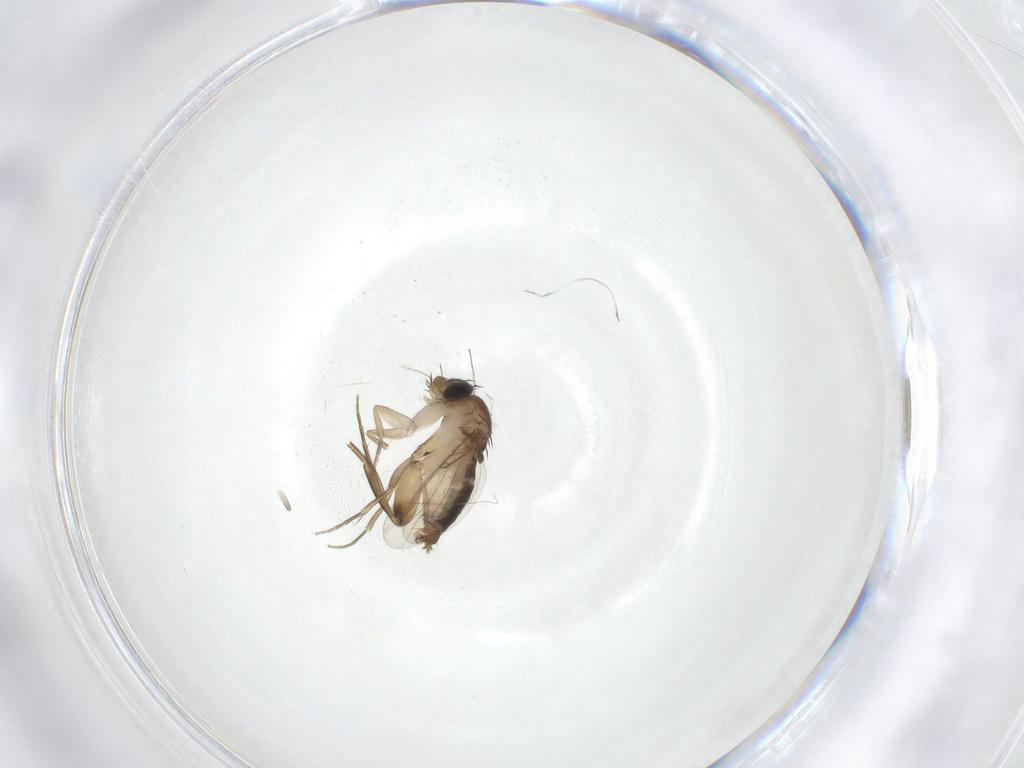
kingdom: Animalia
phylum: Arthropoda
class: Insecta
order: Diptera
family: Phoridae
